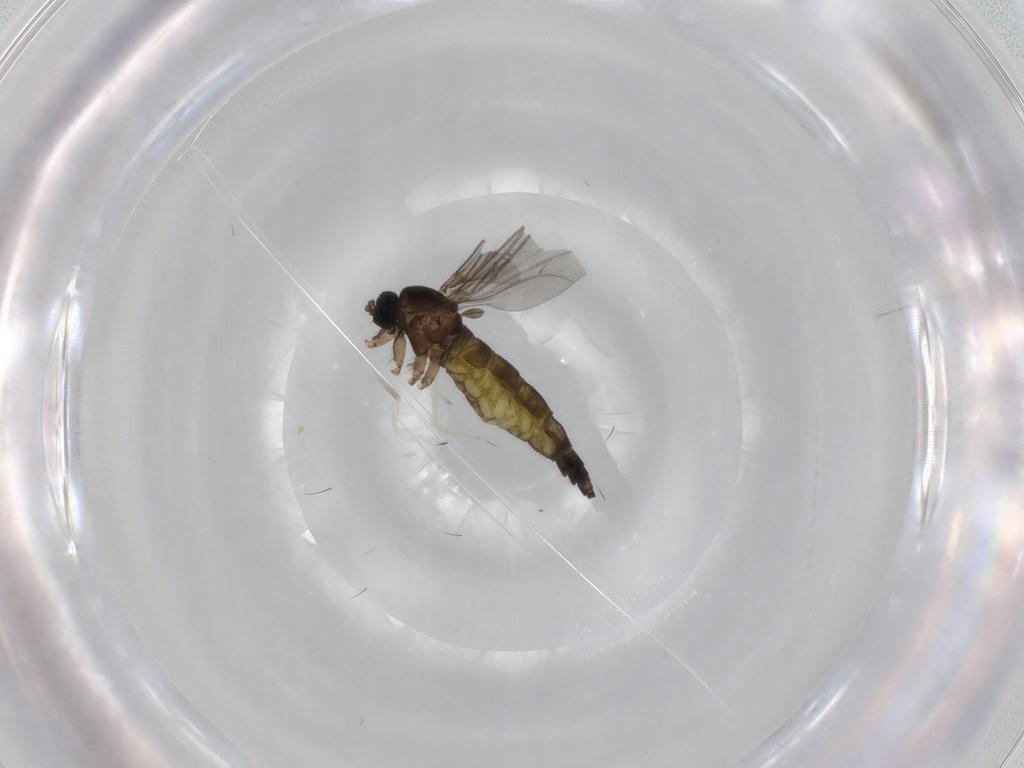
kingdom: Animalia
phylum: Arthropoda
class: Insecta
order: Diptera
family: Sciaridae
